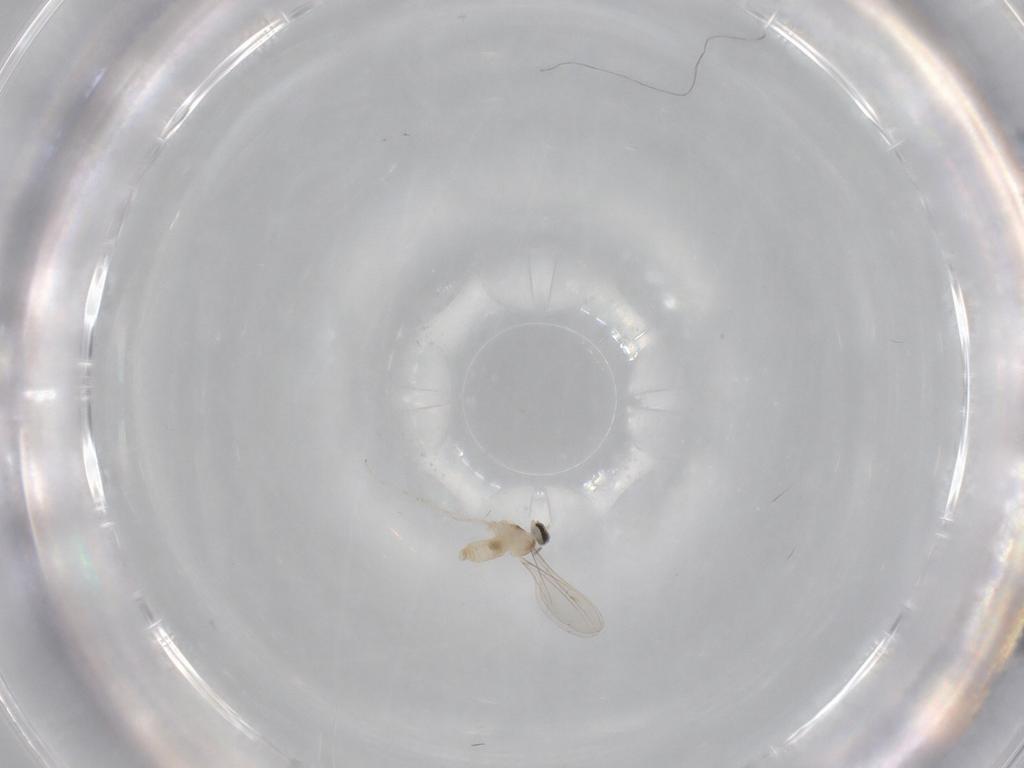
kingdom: Animalia
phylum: Arthropoda
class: Insecta
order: Diptera
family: Cecidomyiidae
